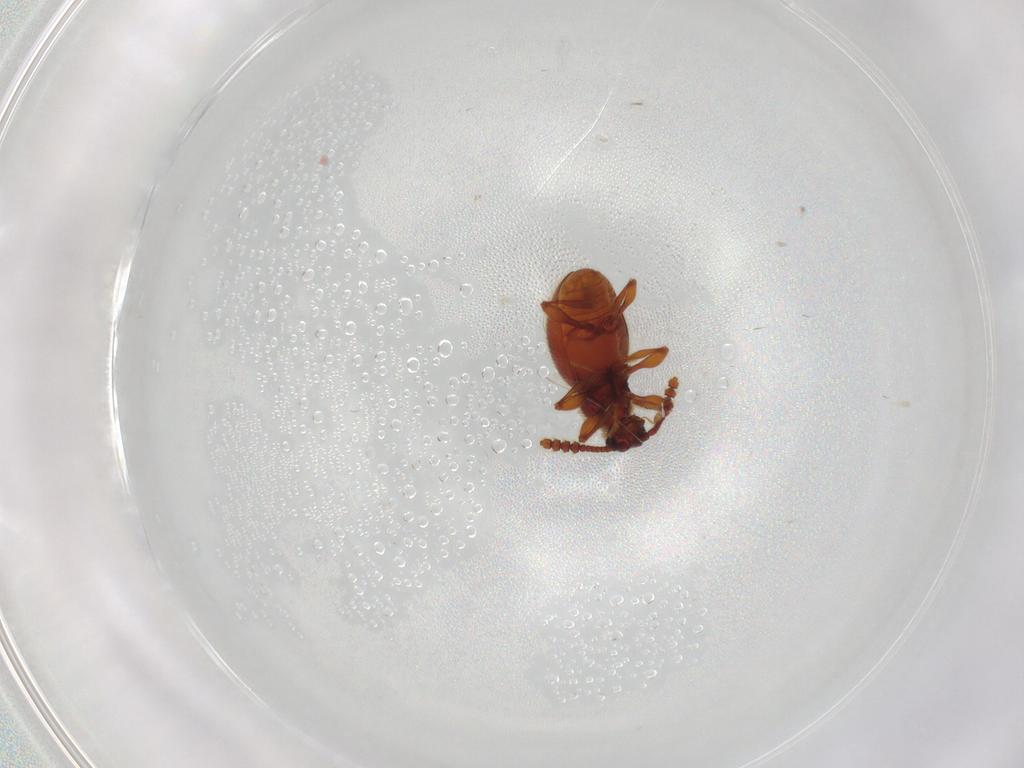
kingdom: Animalia
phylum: Arthropoda
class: Insecta
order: Coleoptera
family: Staphylinidae
